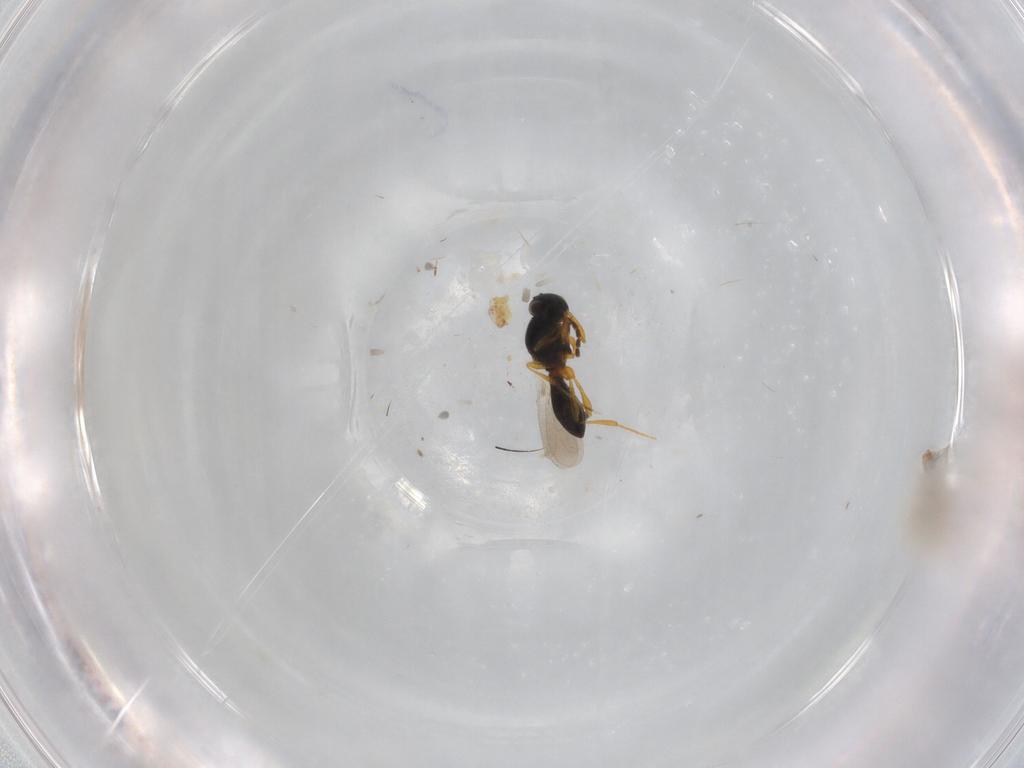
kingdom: Animalia
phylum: Arthropoda
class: Insecta
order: Hymenoptera
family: Platygastridae
